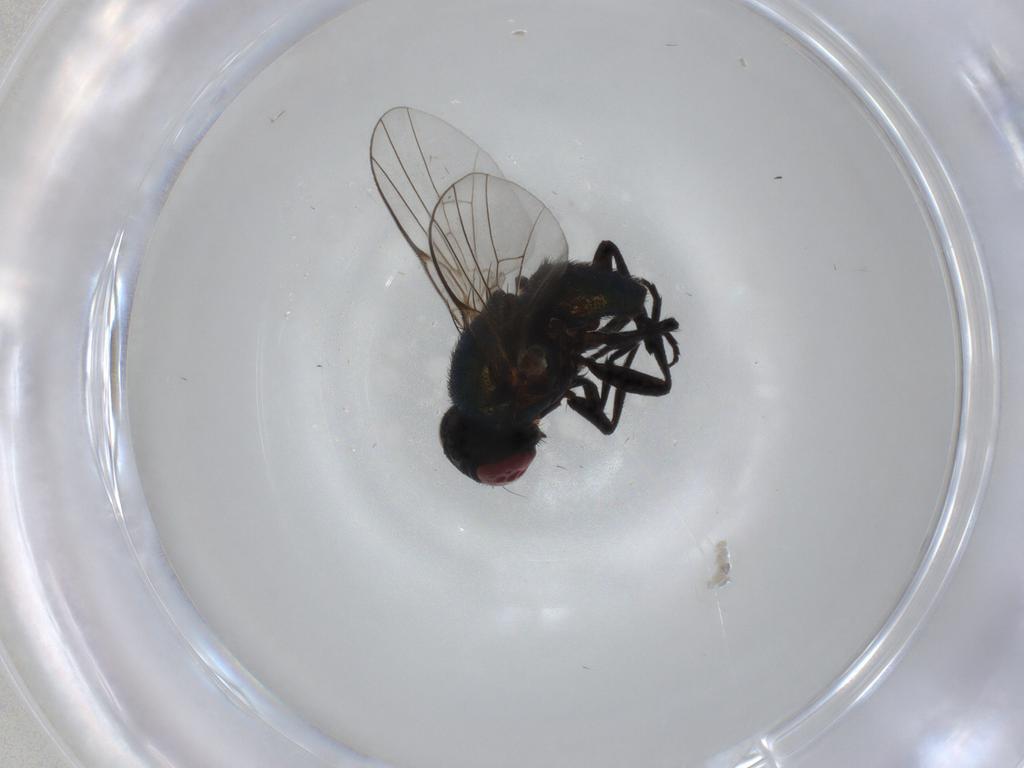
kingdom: Animalia
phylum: Arthropoda
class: Insecta
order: Diptera
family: Agromyzidae
